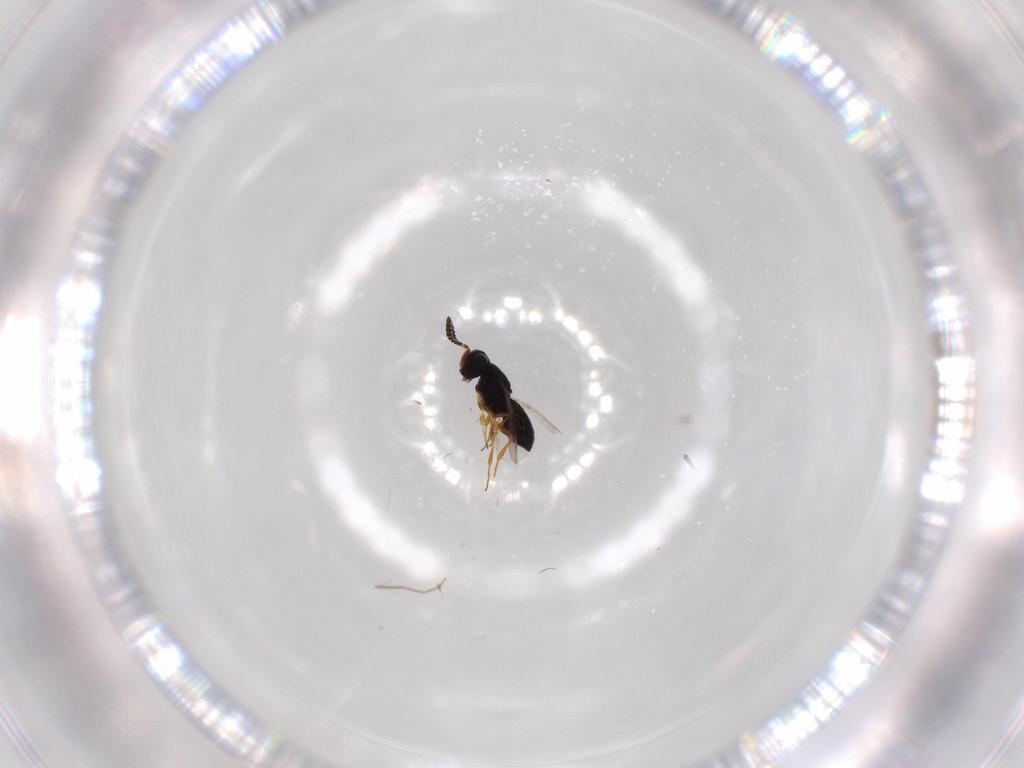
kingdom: Animalia
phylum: Arthropoda
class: Insecta
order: Hymenoptera
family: Scelionidae
